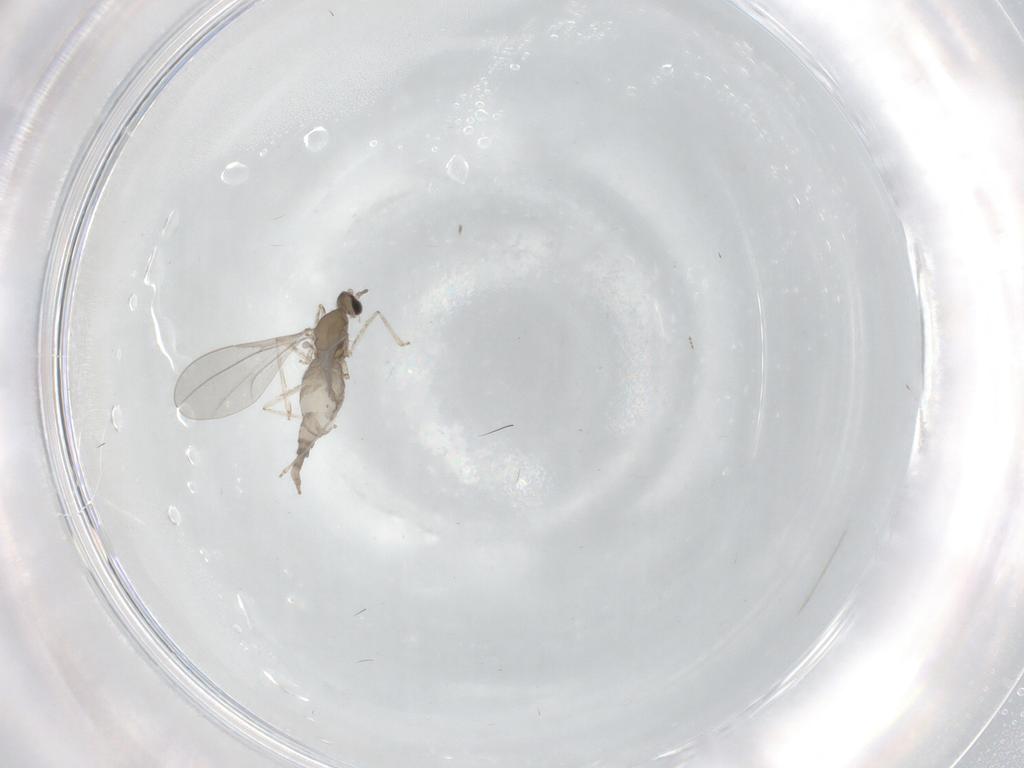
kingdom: Animalia
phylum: Arthropoda
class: Insecta
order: Diptera
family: Cecidomyiidae
